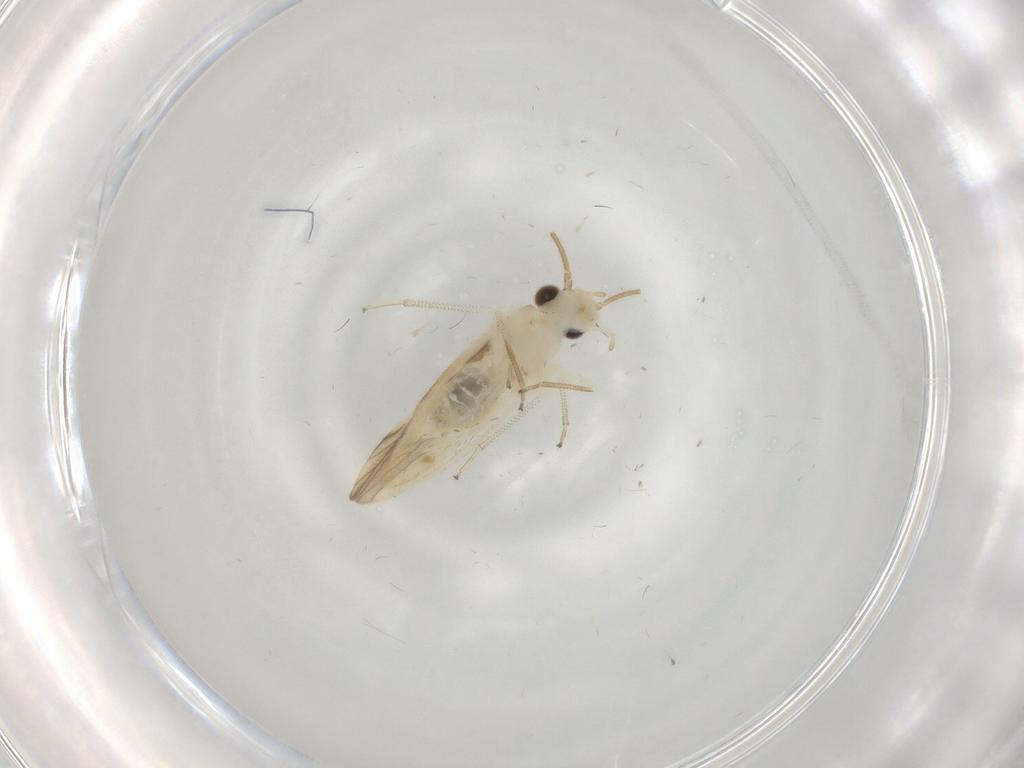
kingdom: Animalia
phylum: Arthropoda
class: Insecta
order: Psocodea
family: Caeciliusidae
